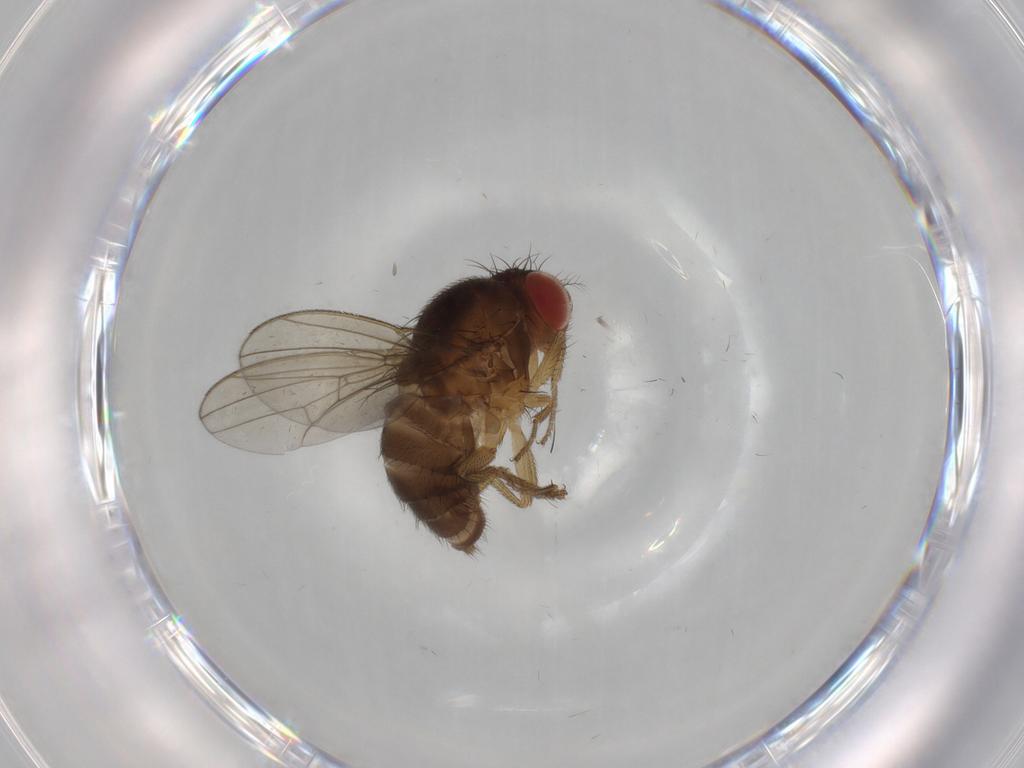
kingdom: Animalia
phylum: Arthropoda
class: Insecta
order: Diptera
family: Drosophilidae
